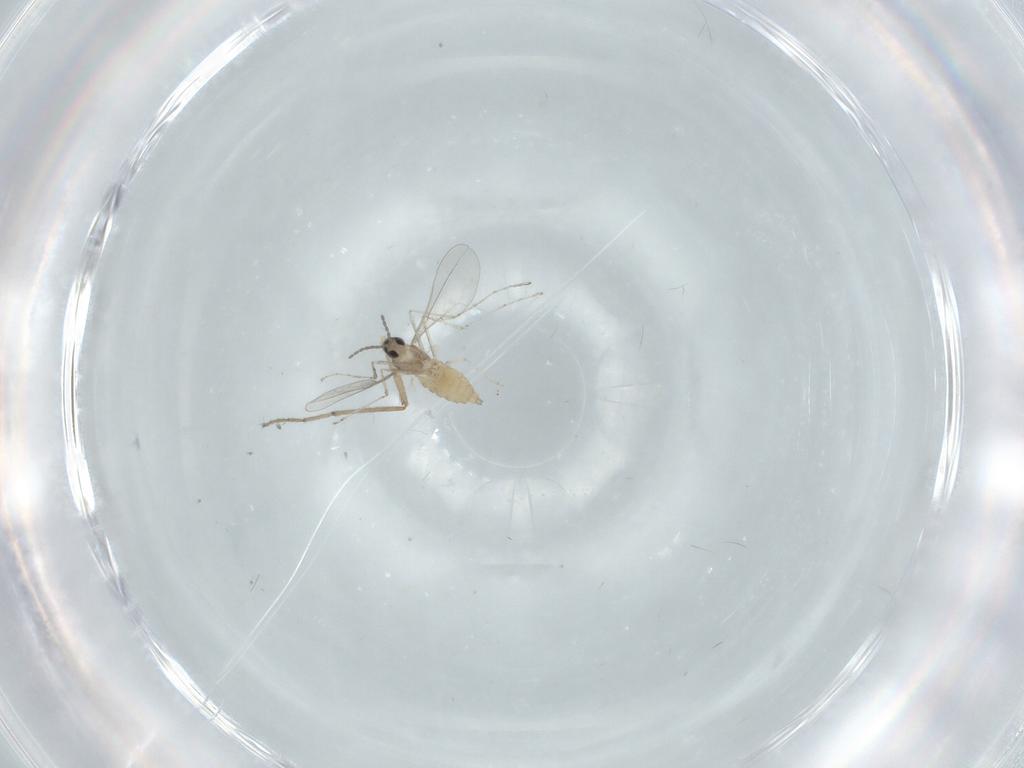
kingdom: Animalia
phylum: Arthropoda
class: Insecta
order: Diptera
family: Cecidomyiidae
